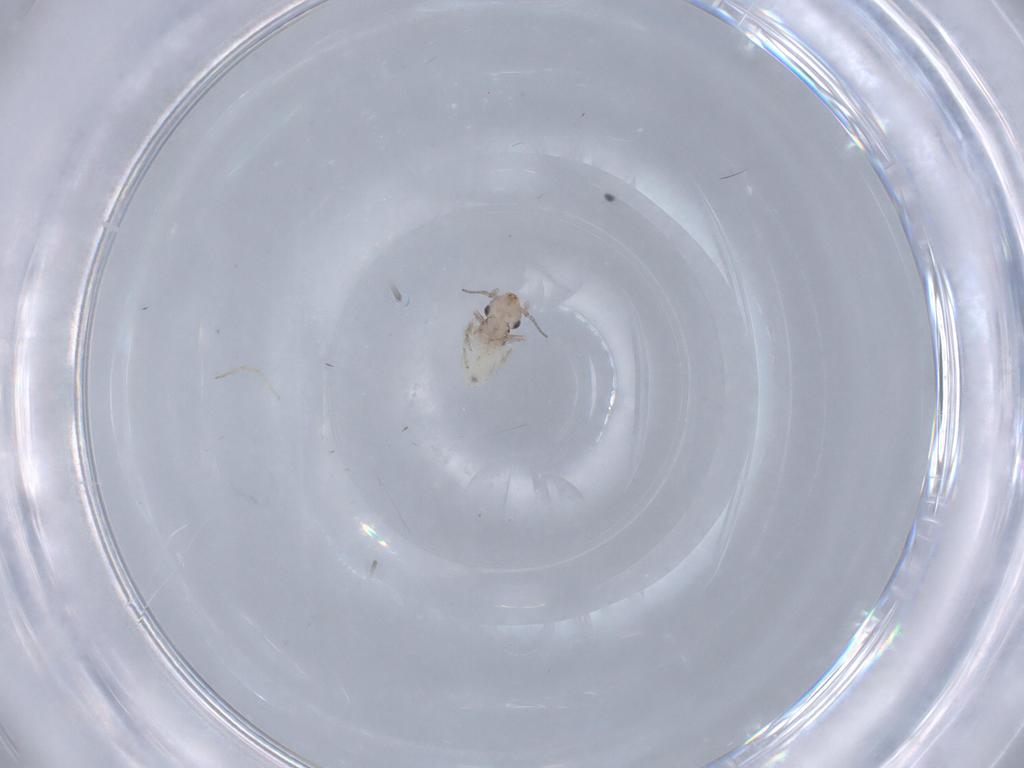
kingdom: Animalia
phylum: Arthropoda
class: Insecta
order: Psocodea
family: Lepidopsocidae
